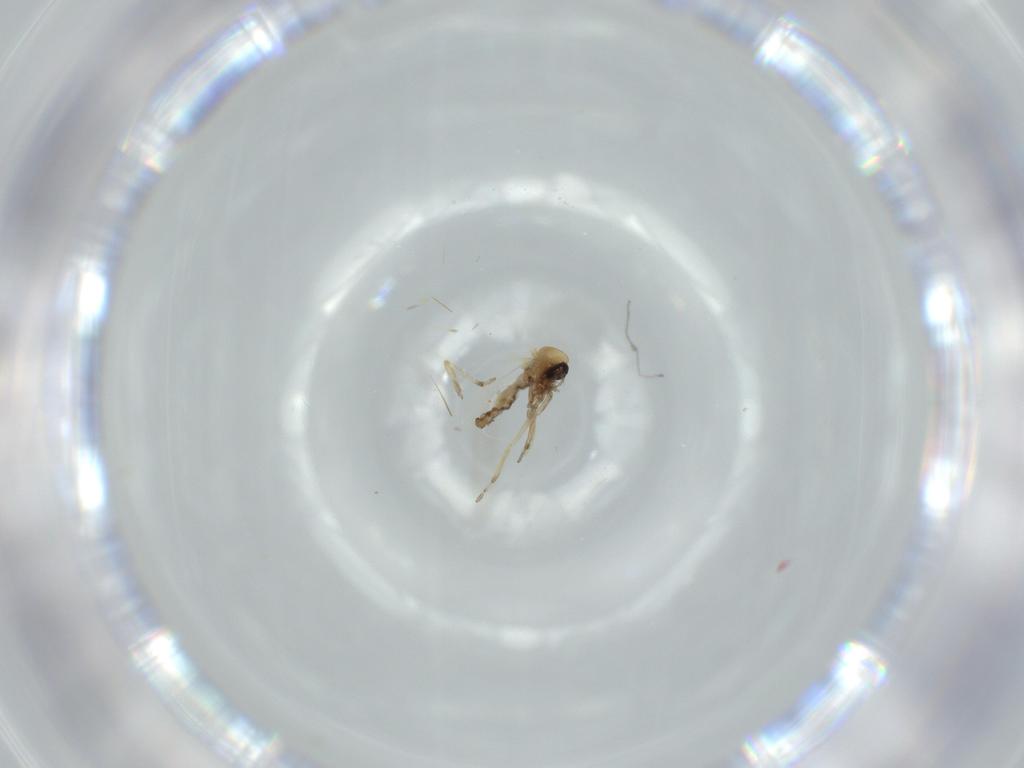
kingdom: Animalia
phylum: Arthropoda
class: Insecta
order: Diptera
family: Ceratopogonidae
